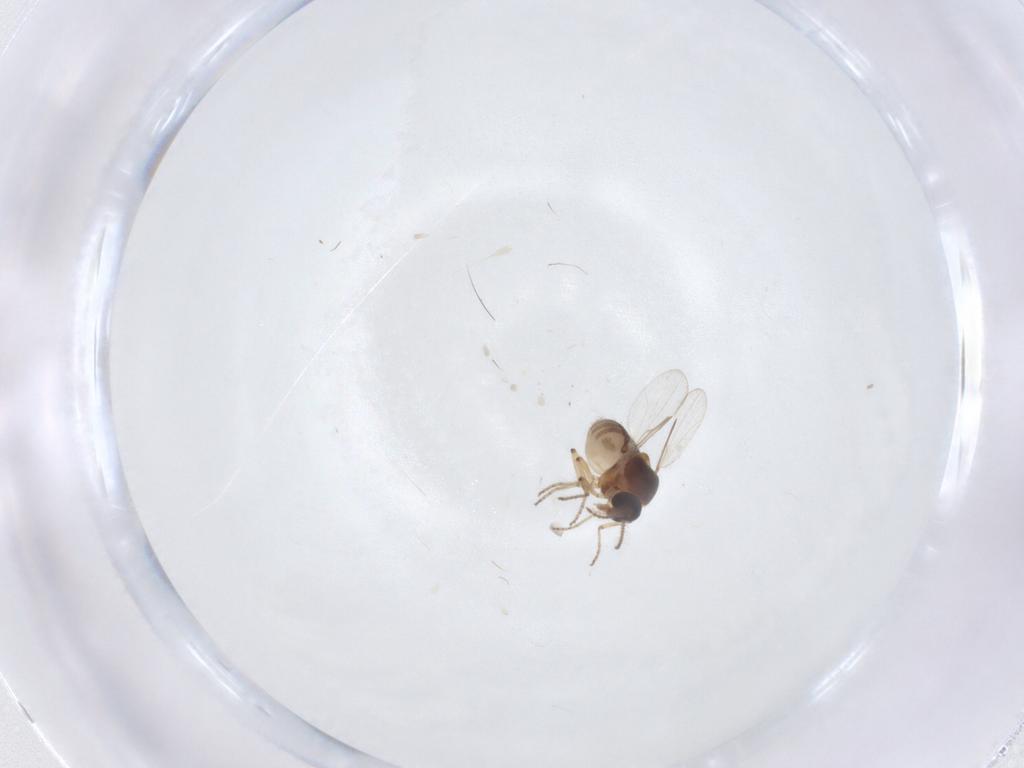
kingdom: Animalia
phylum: Arthropoda
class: Insecta
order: Diptera
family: Ceratopogonidae
